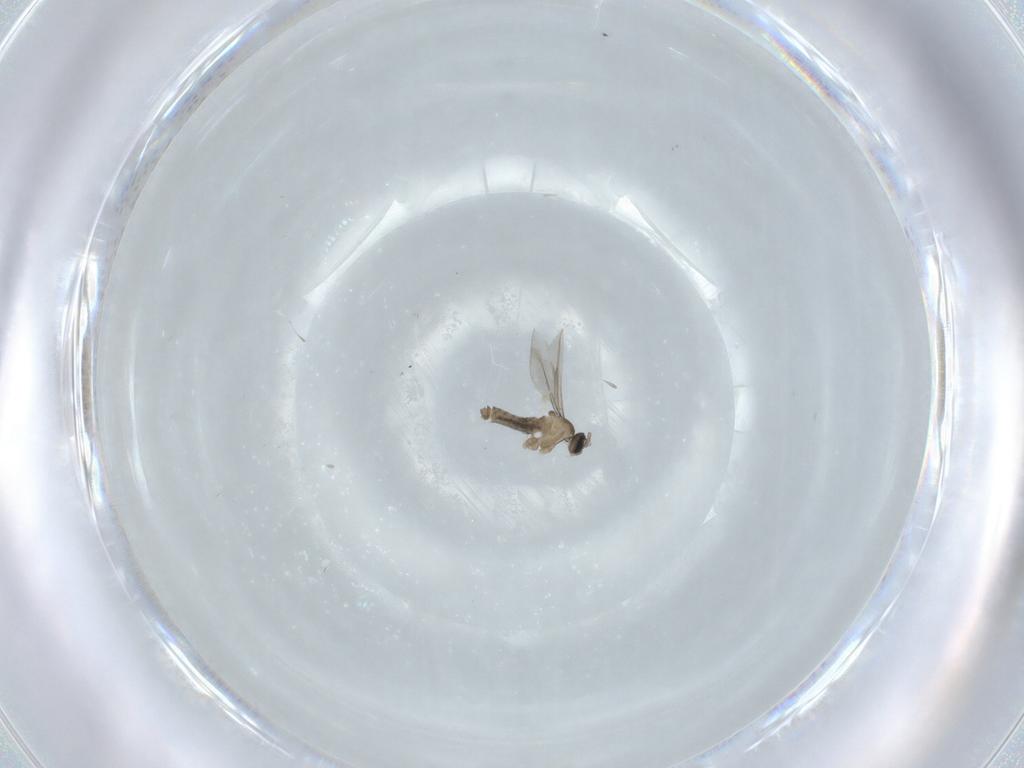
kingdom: Animalia
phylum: Arthropoda
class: Insecta
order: Diptera
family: Cecidomyiidae
